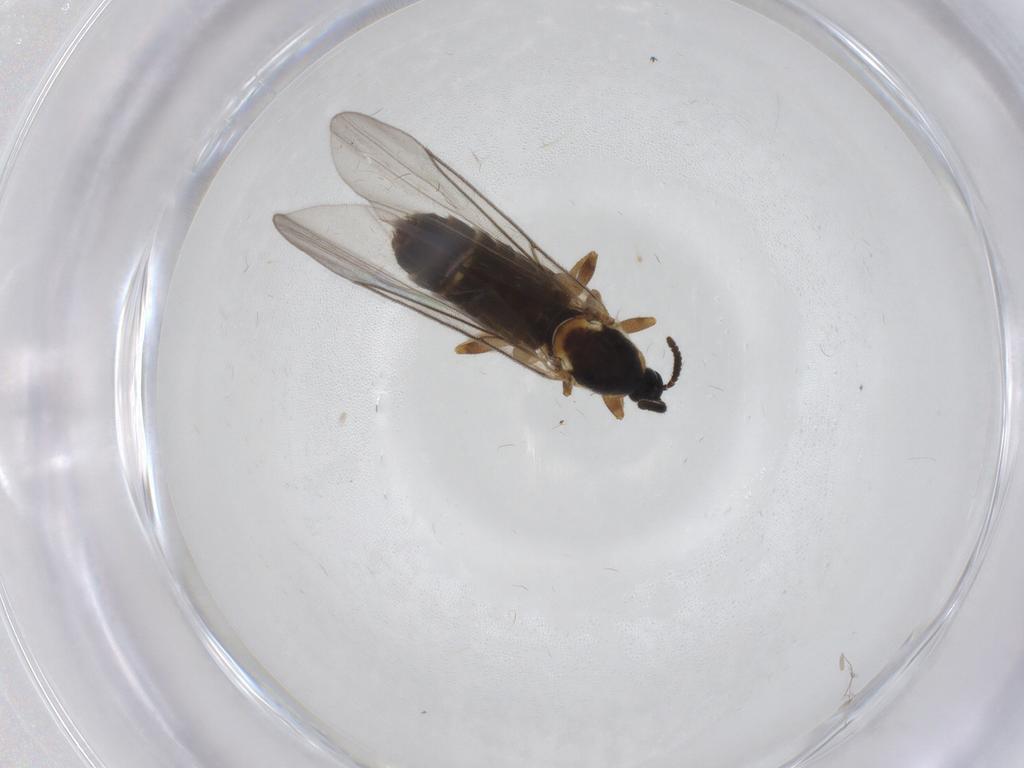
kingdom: Animalia
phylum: Arthropoda
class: Insecta
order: Diptera
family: Scatopsidae
